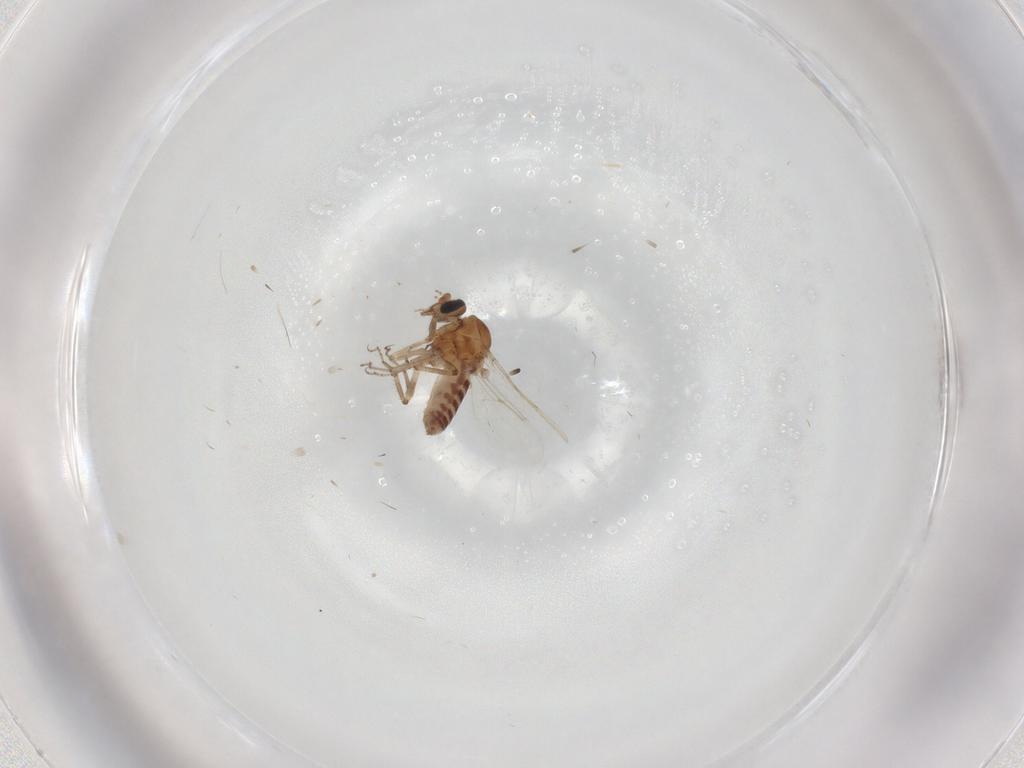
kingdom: Animalia
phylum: Arthropoda
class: Insecta
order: Diptera
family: Ceratopogonidae
